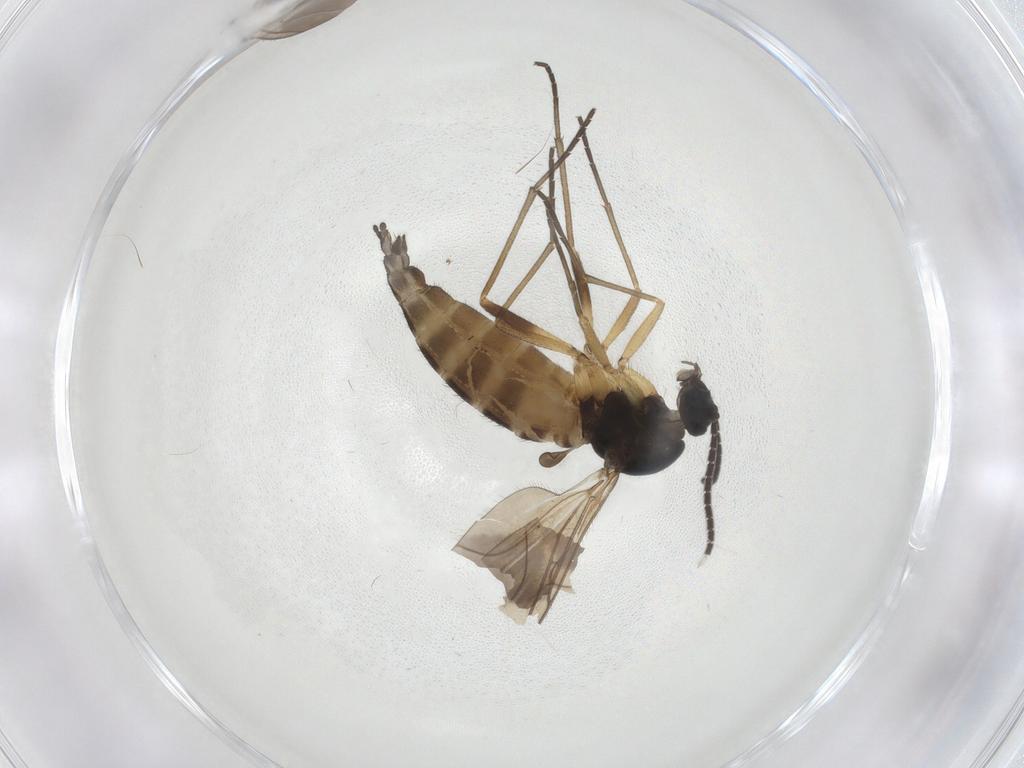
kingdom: Animalia
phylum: Arthropoda
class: Insecta
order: Diptera
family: Sciaridae
